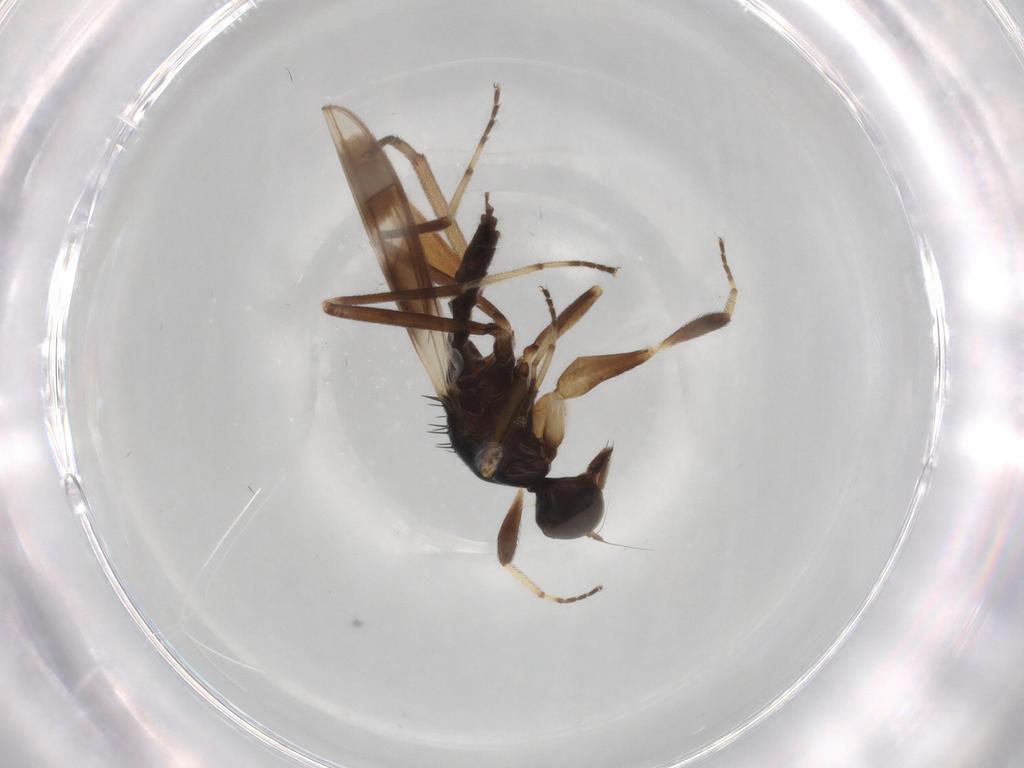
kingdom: Animalia
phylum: Arthropoda
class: Insecta
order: Diptera
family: Hybotidae
